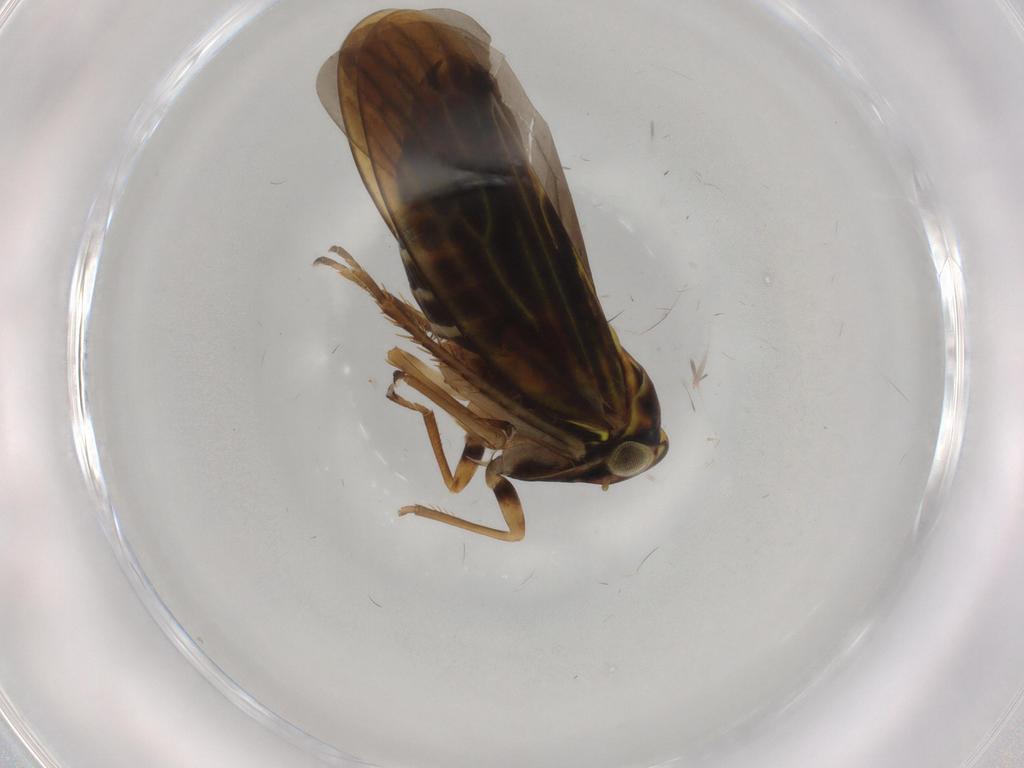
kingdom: Animalia
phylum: Arthropoda
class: Insecta
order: Hemiptera
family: Cicadellidae
